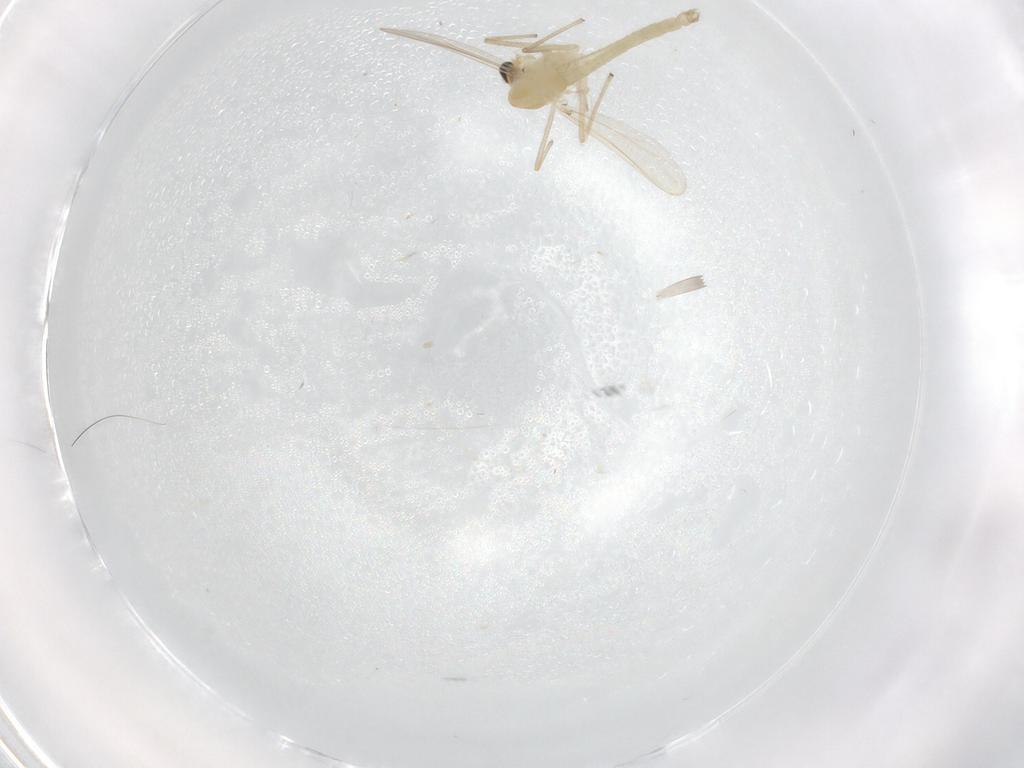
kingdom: Animalia
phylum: Arthropoda
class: Insecta
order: Diptera
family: Chironomidae
